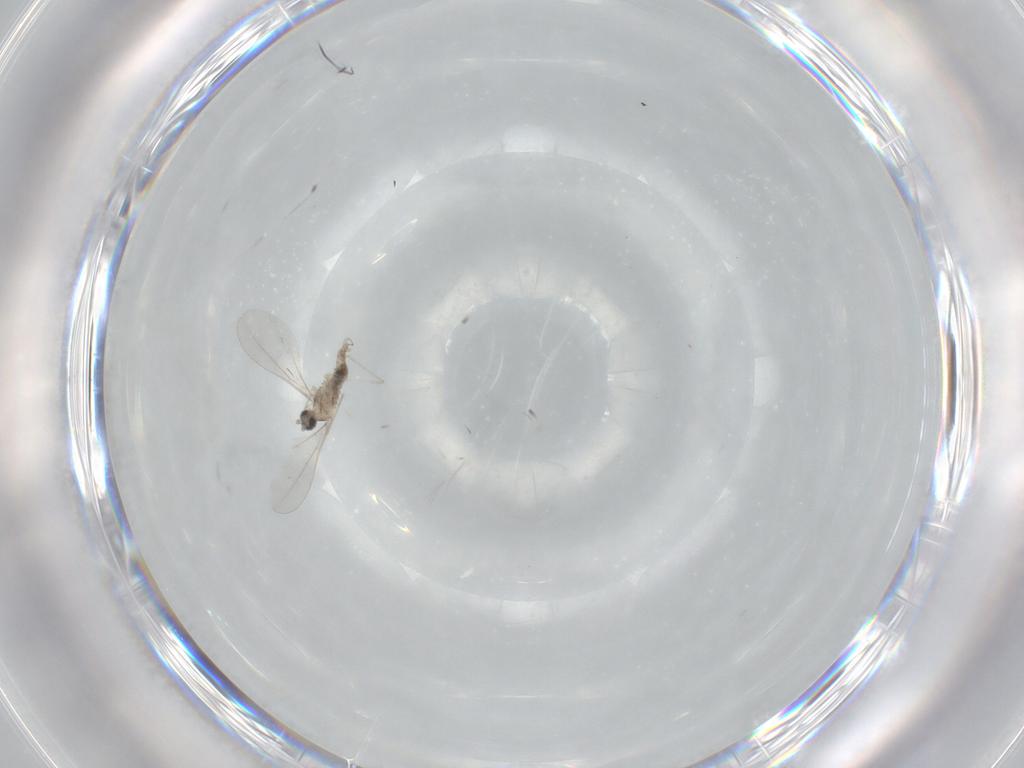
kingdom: Animalia
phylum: Arthropoda
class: Insecta
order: Diptera
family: Cecidomyiidae
